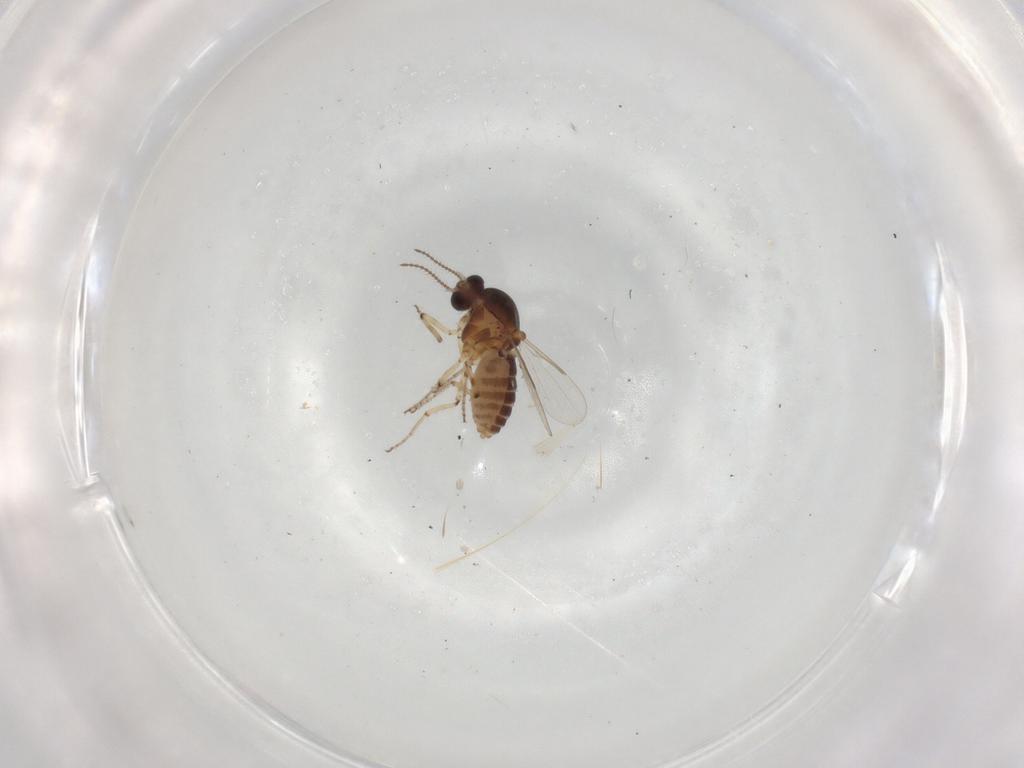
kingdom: Animalia
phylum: Arthropoda
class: Insecta
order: Diptera
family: Ceratopogonidae
